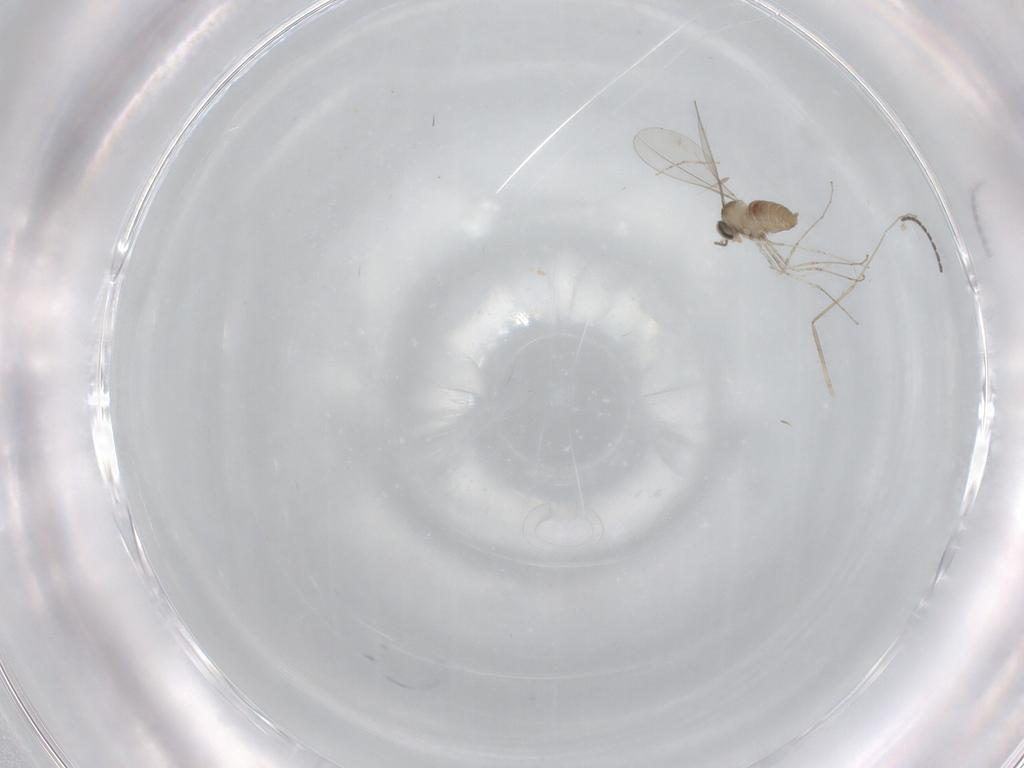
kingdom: Animalia
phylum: Arthropoda
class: Insecta
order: Diptera
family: Cecidomyiidae
